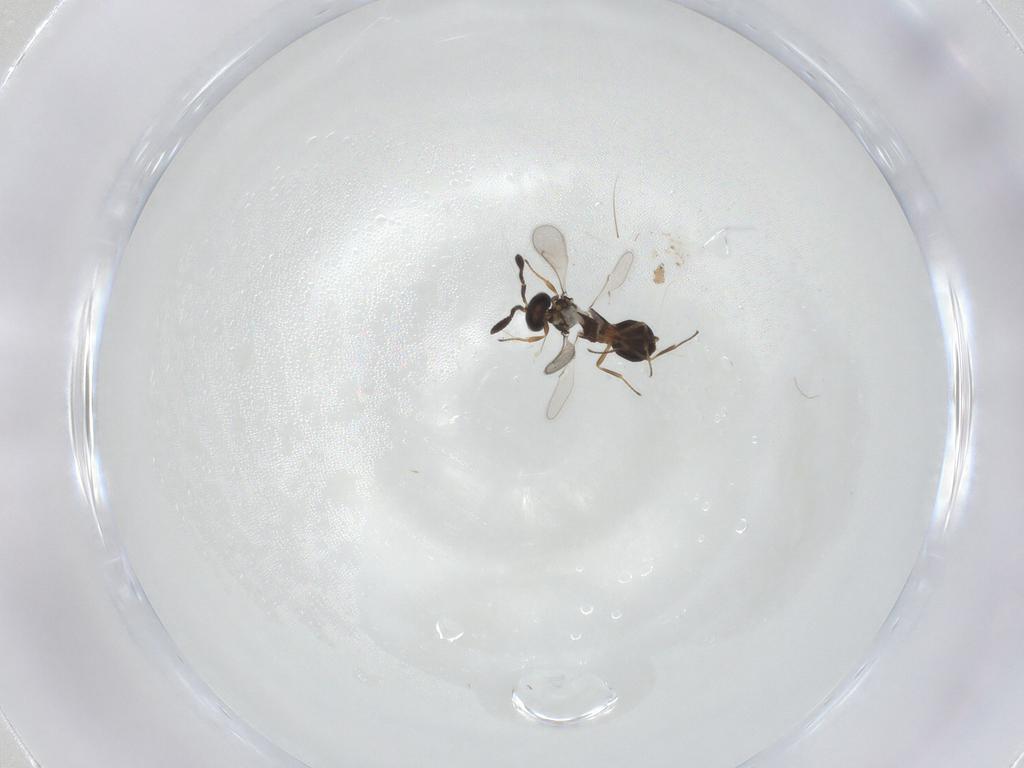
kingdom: Animalia
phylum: Arthropoda
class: Insecta
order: Hymenoptera
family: Scelionidae
